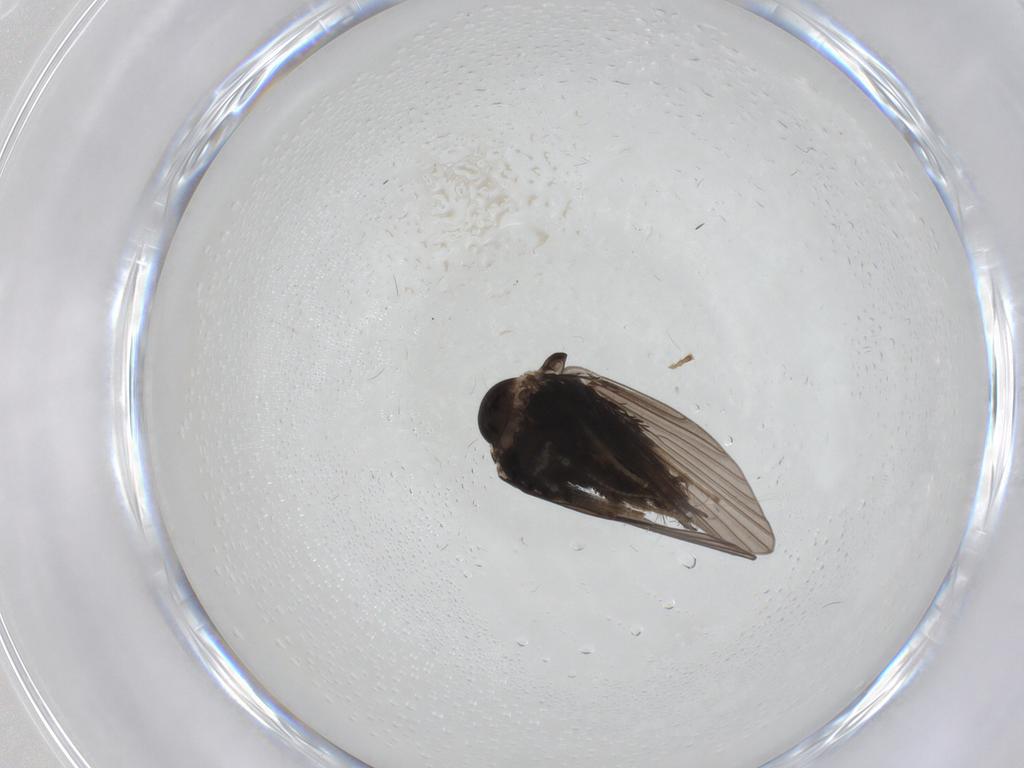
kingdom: Animalia
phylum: Arthropoda
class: Insecta
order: Diptera
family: Psychodidae
